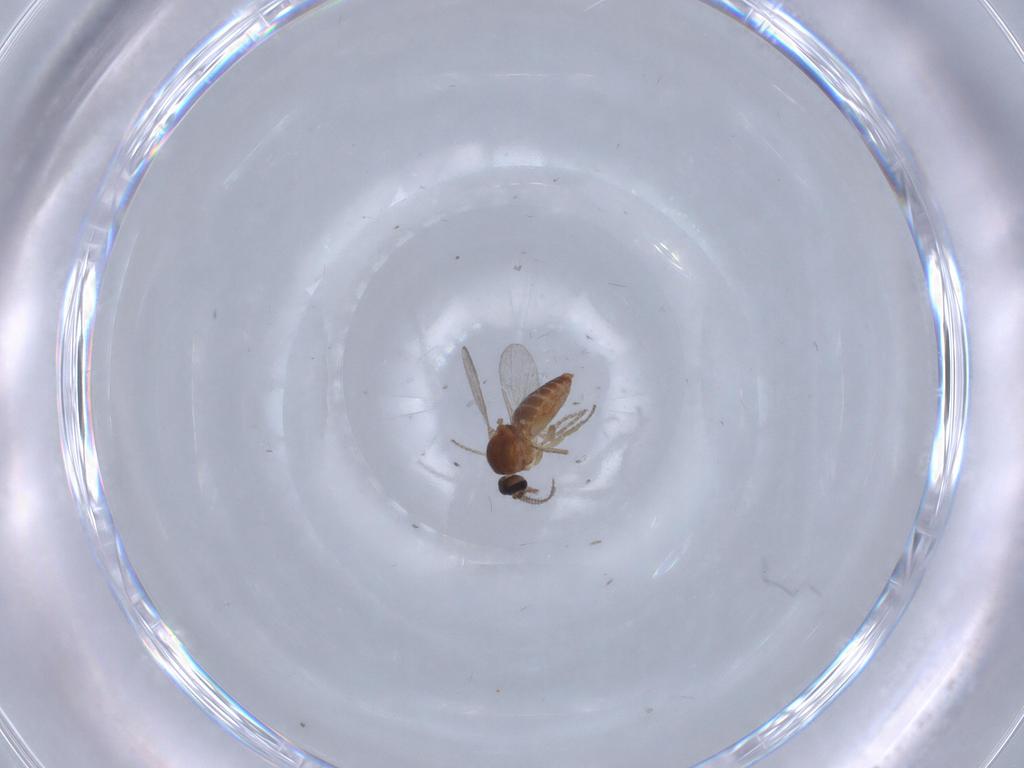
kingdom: Animalia
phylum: Arthropoda
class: Insecta
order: Diptera
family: Ceratopogonidae
